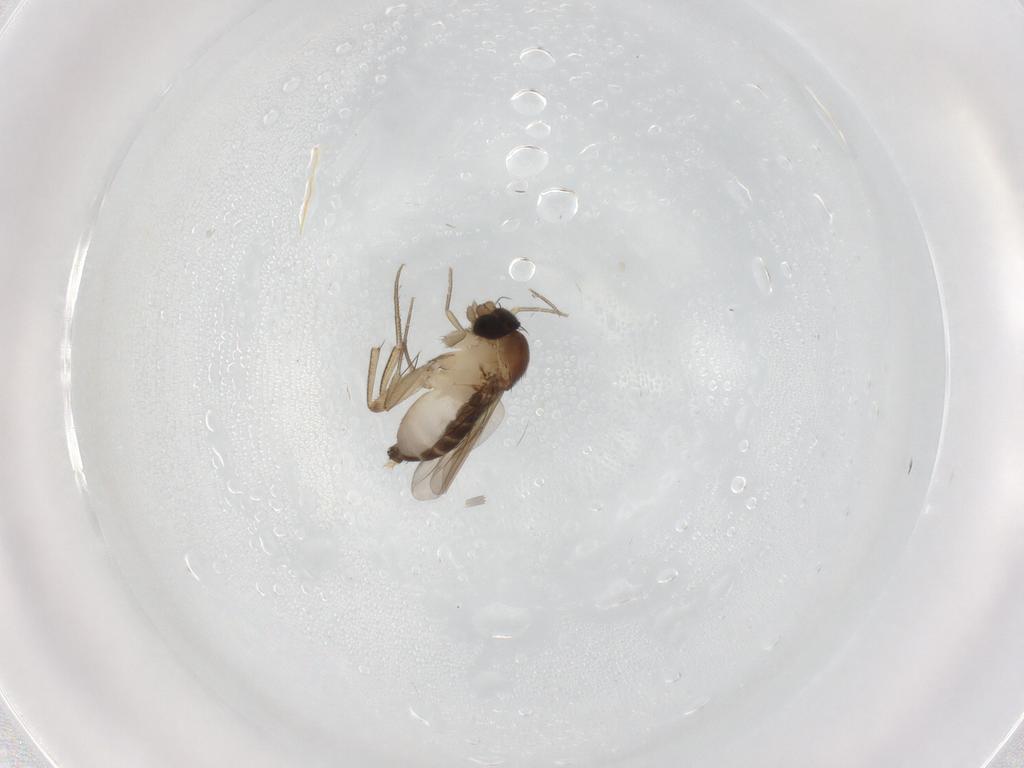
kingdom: Animalia
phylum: Arthropoda
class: Insecta
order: Diptera
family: Phoridae
